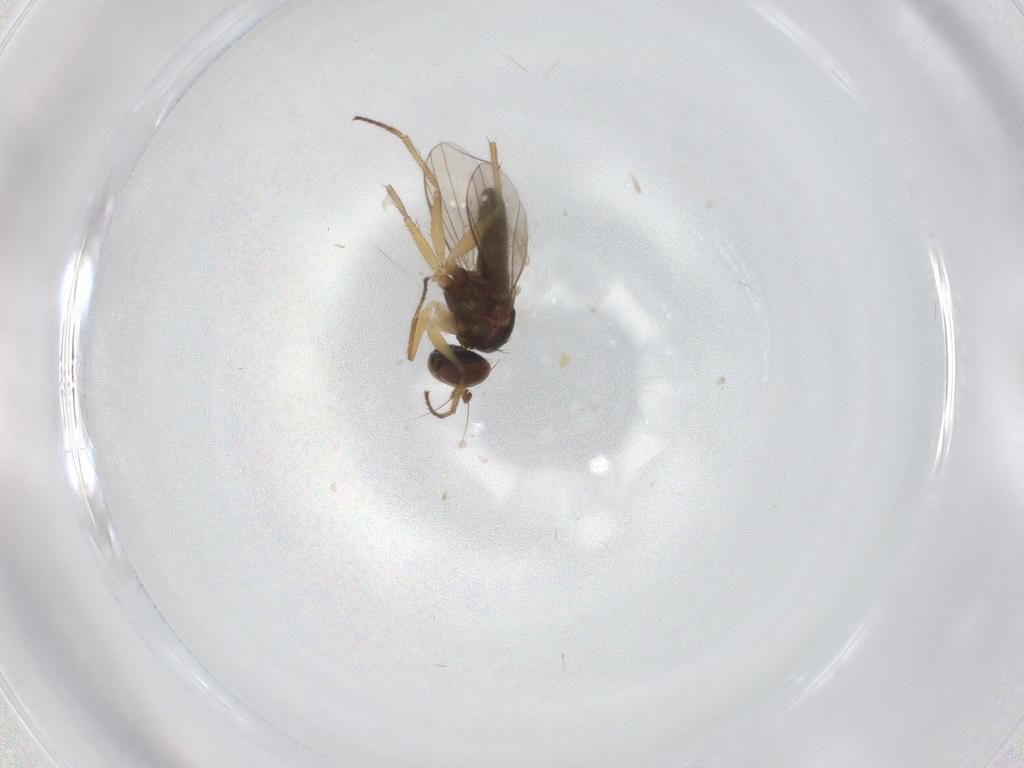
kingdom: Animalia
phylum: Arthropoda
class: Insecta
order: Diptera
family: Ceratopogonidae
